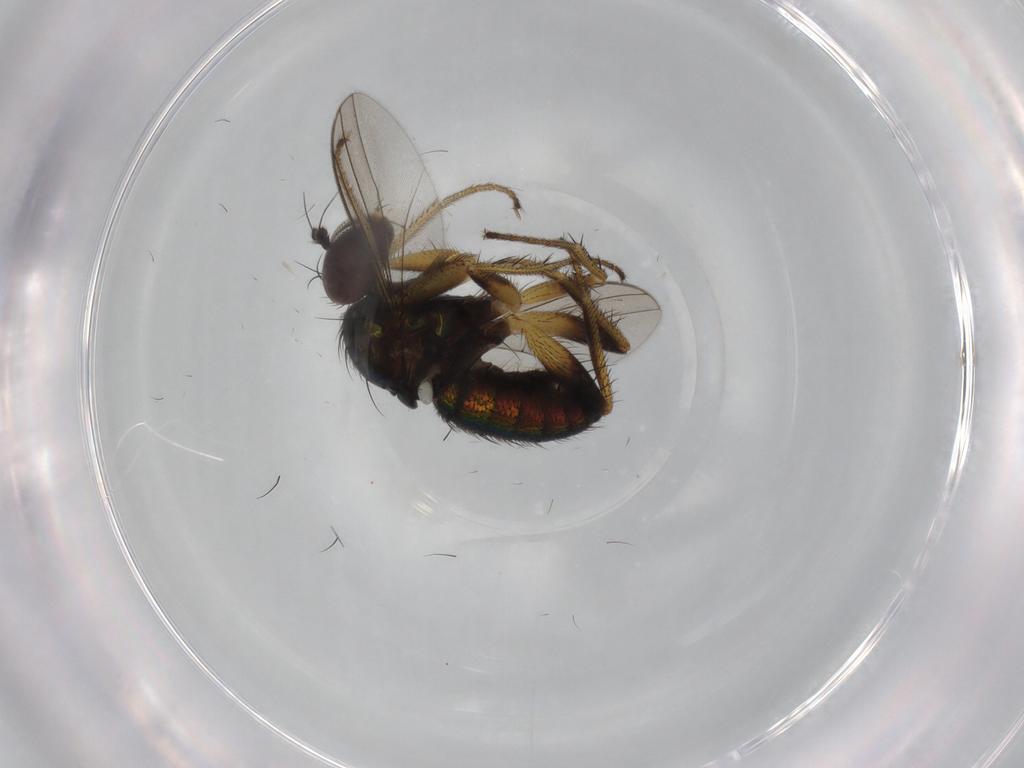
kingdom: Animalia
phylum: Arthropoda
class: Insecta
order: Diptera
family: Dolichopodidae
